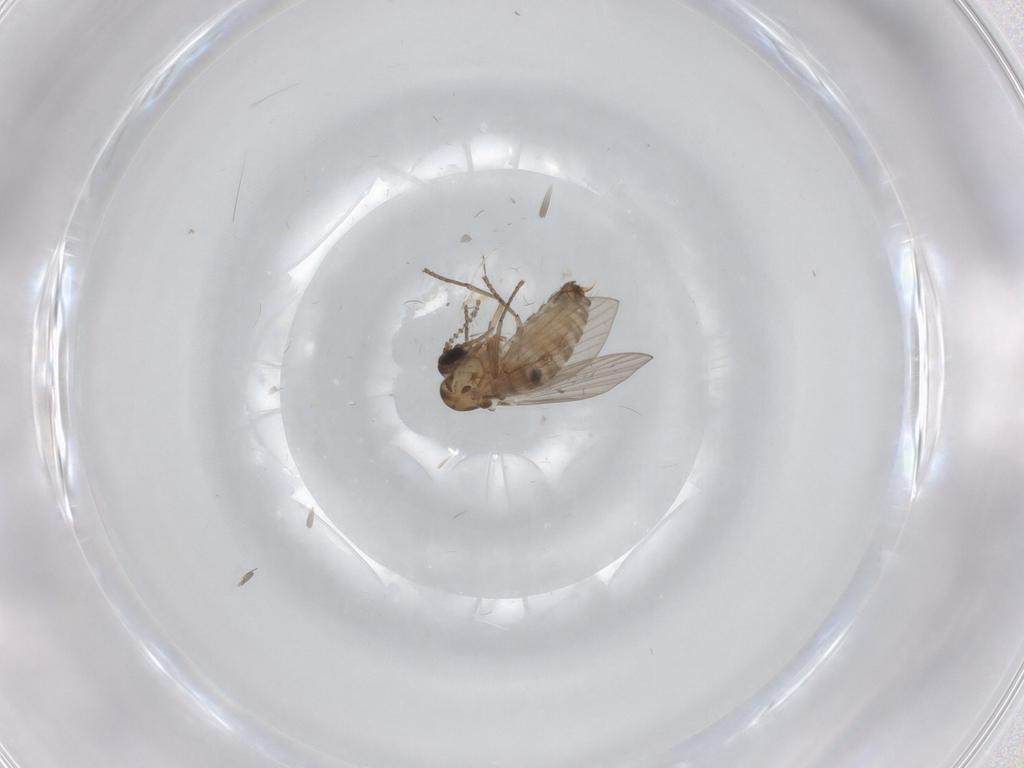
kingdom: Animalia
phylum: Arthropoda
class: Insecta
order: Diptera
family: Psychodidae
